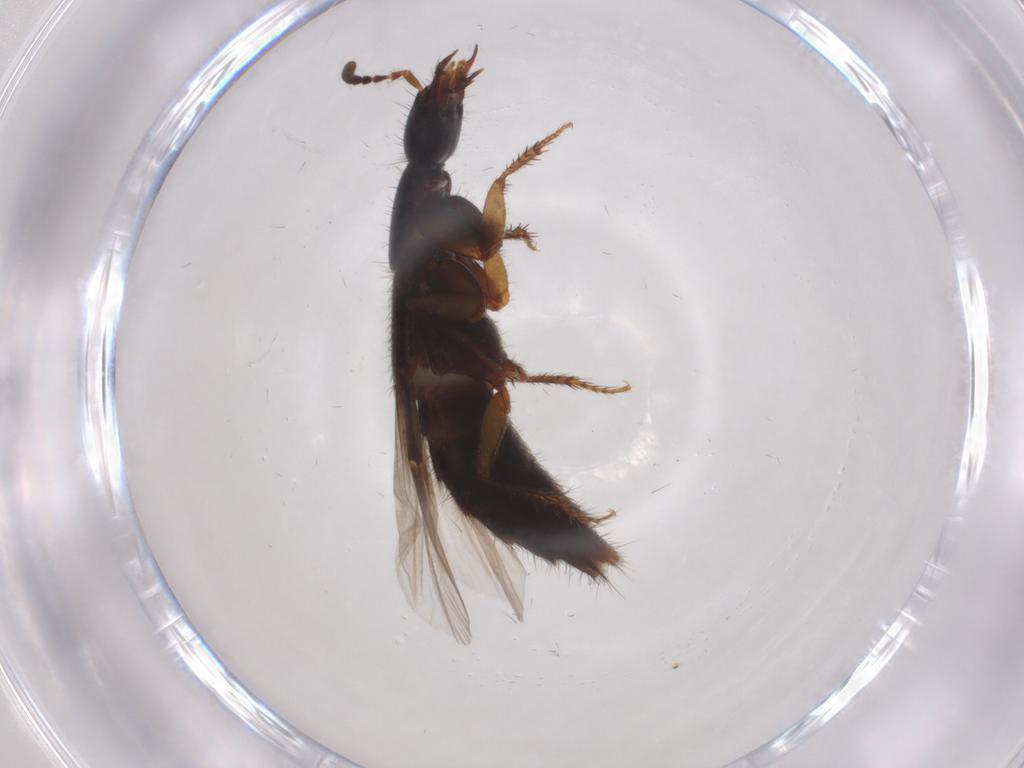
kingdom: Animalia
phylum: Arthropoda
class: Insecta
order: Coleoptera
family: Staphylinidae
